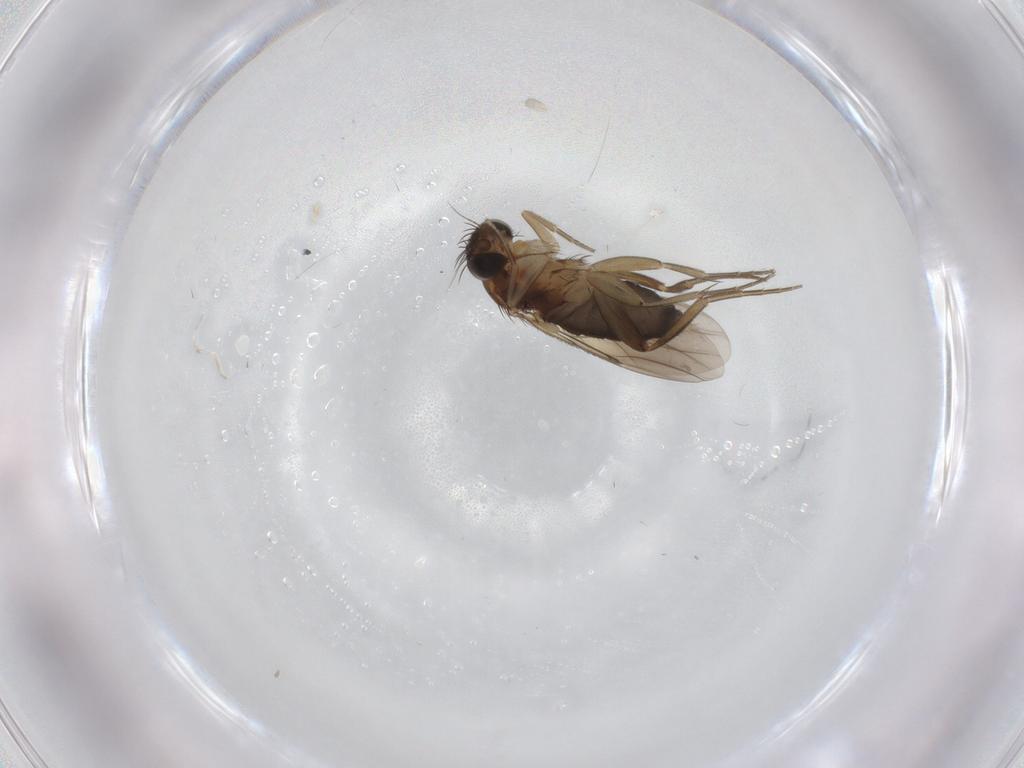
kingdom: Animalia
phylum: Arthropoda
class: Insecta
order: Diptera
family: Phoridae
